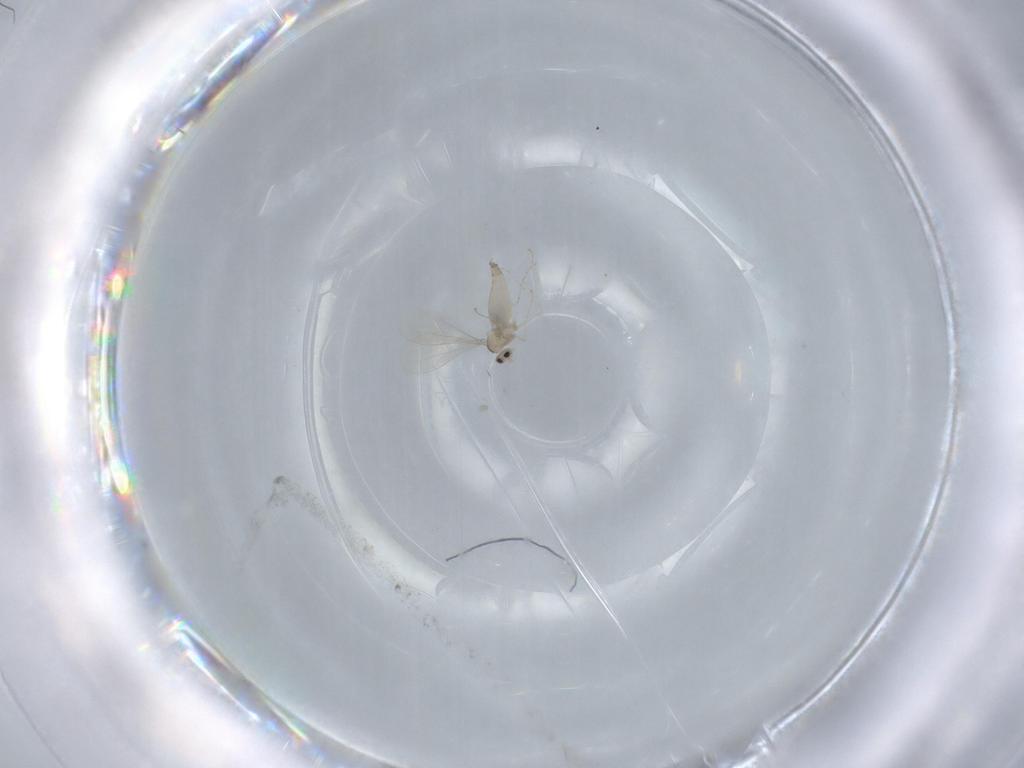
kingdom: Animalia
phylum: Arthropoda
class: Insecta
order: Diptera
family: Cecidomyiidae
